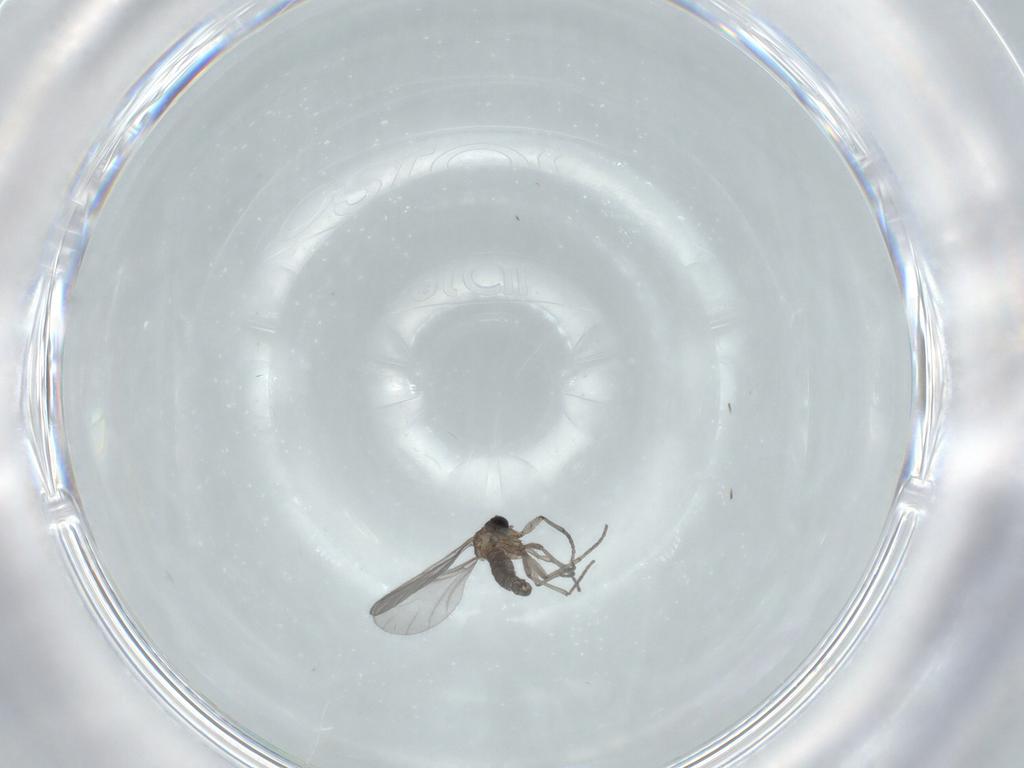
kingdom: Animalia
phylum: Arthropoda
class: Insecta
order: Diptera
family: Sciaridae
